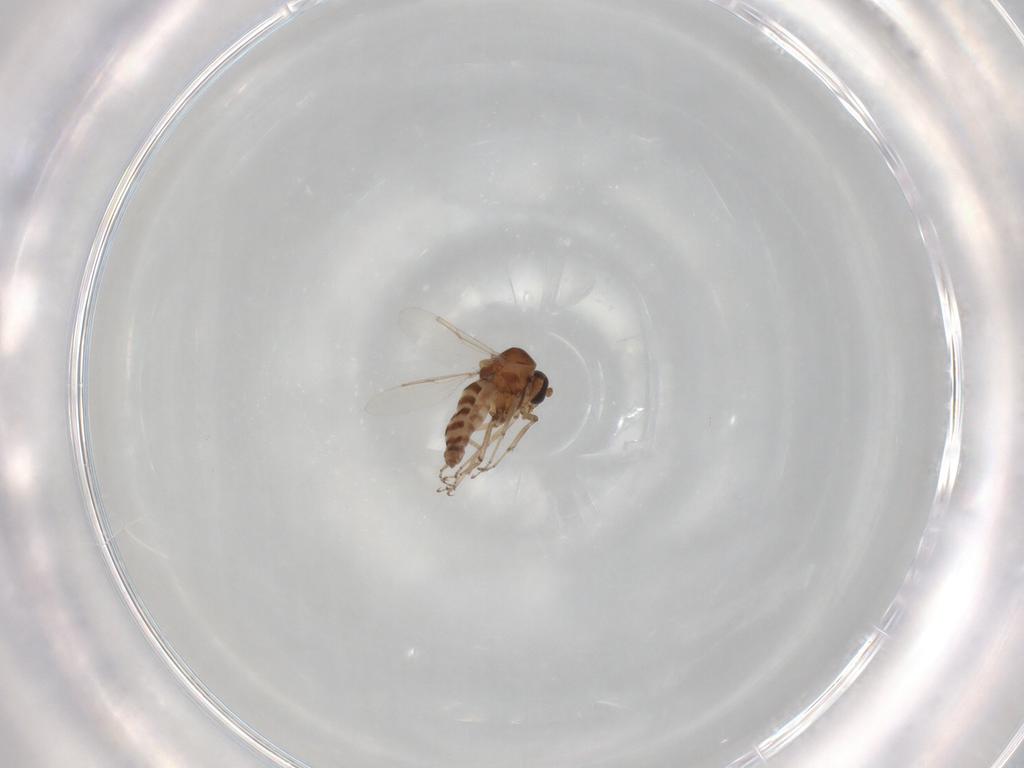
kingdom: Animalia
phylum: Arthropoda
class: Insecta
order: Diptera
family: Ceratopogonidae
